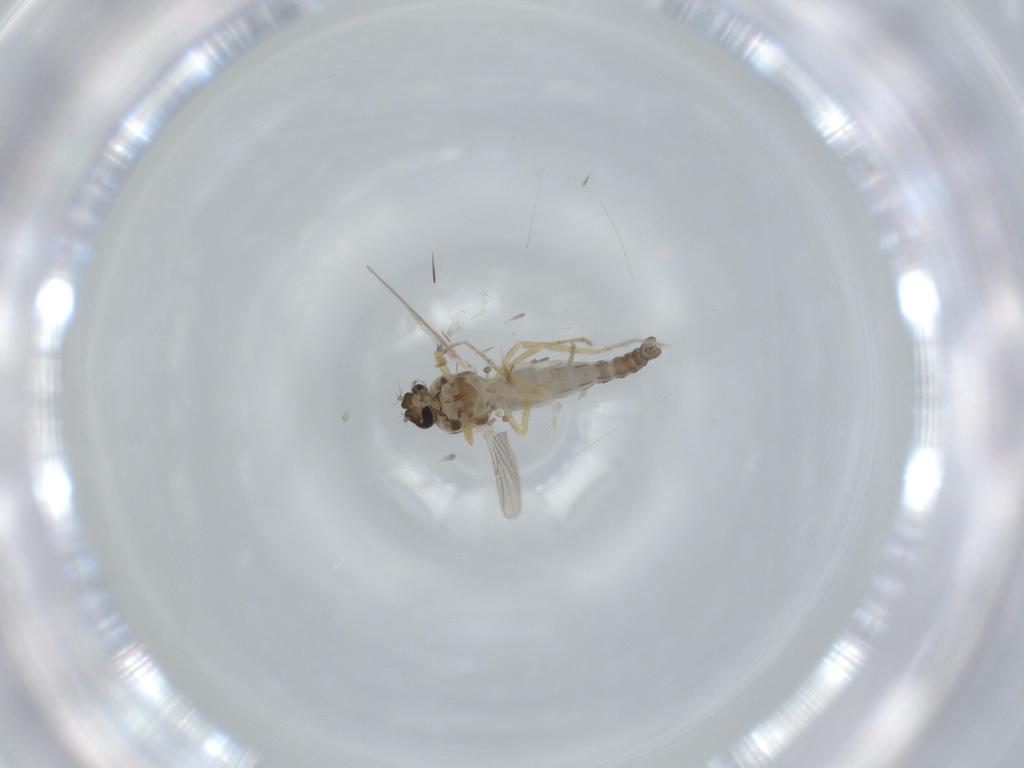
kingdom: Animalia
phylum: Arthropoda
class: Insecta
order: Diptera
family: Ceratopogonidae
